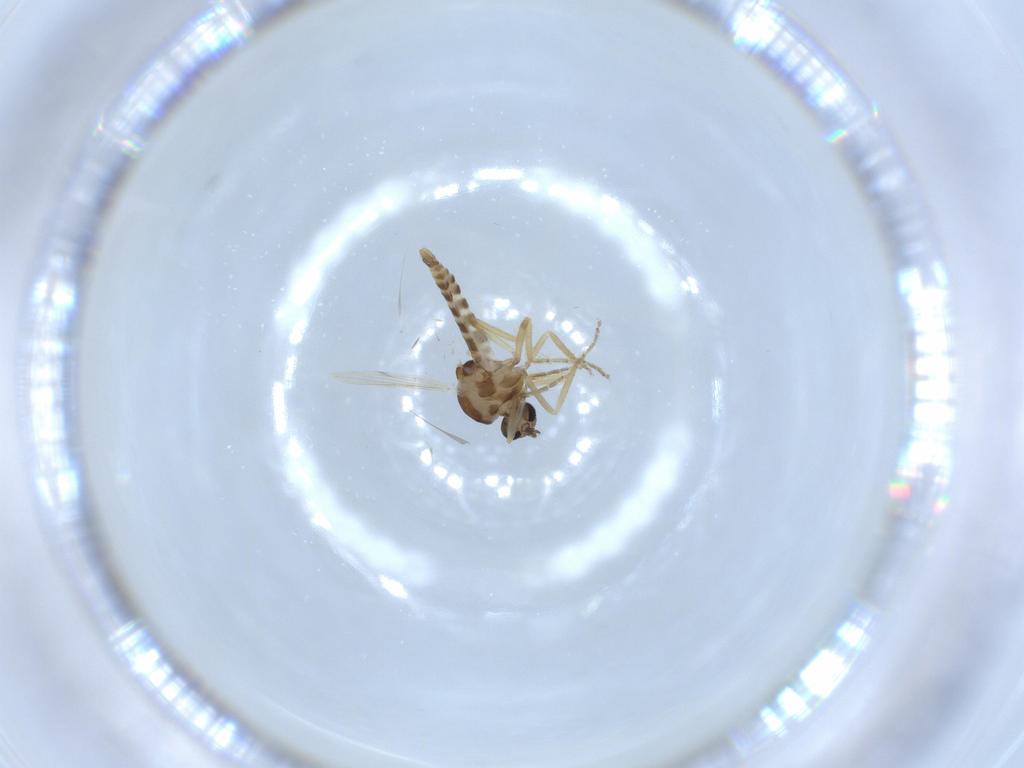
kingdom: Animalia
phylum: Arthropoda
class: Insecta
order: Diptera
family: Ceratopogonidae
